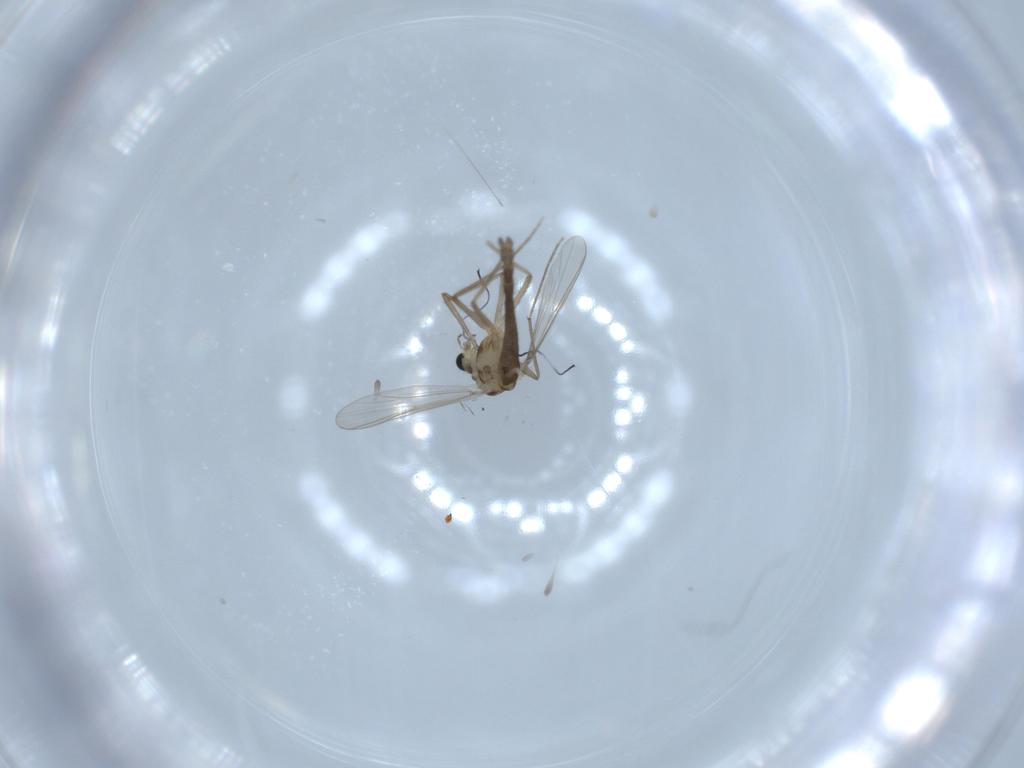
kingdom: Animalia
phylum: Arthropoda
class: Insecta
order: Diptera
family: Chironomidae
